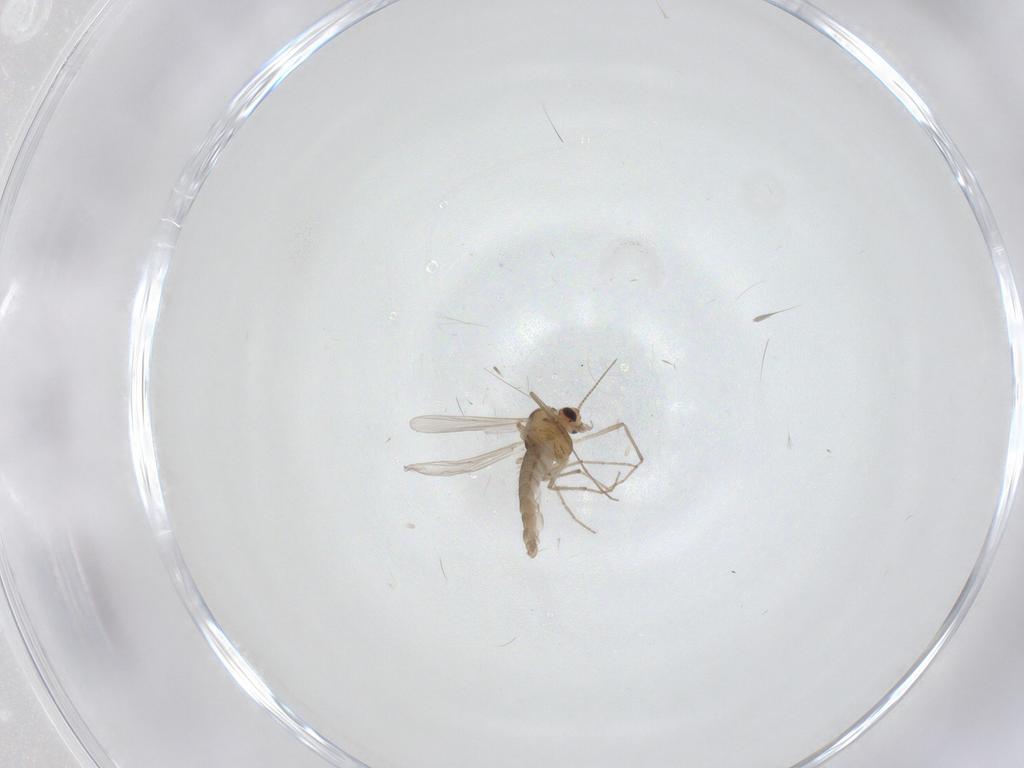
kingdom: Animalia
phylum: Arthropoda
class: Insecta
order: Diptera
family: Chironomidae
